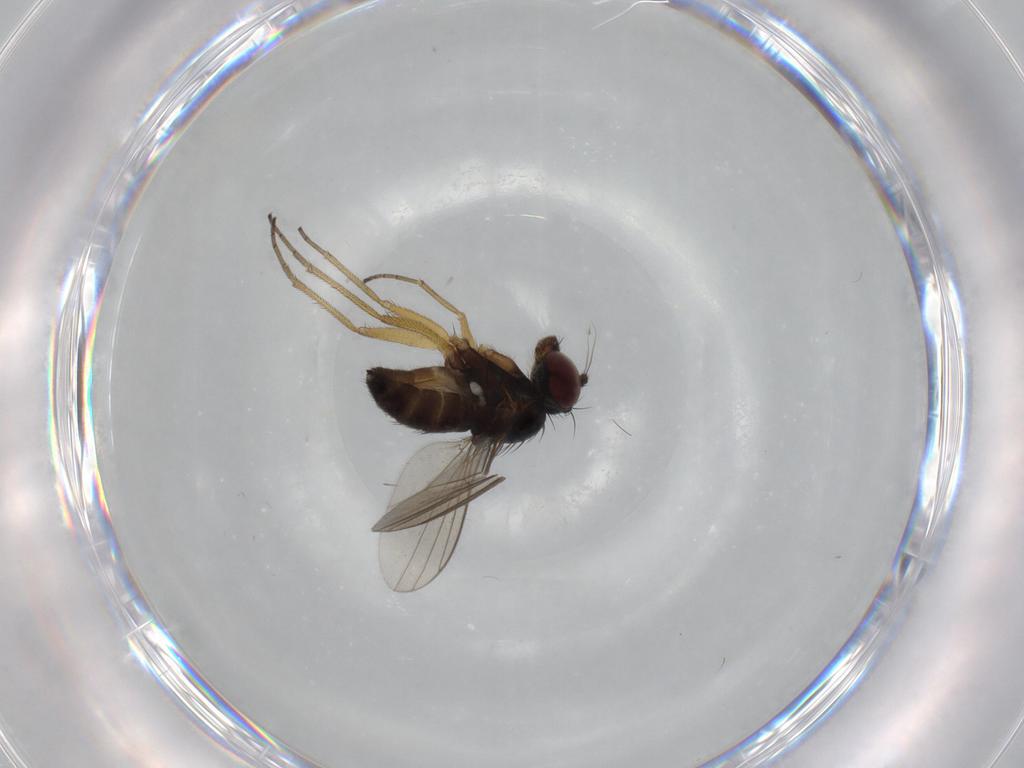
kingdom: Animalia
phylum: Arthropoda
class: Insecta
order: Diptera
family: Dolichopodidae
